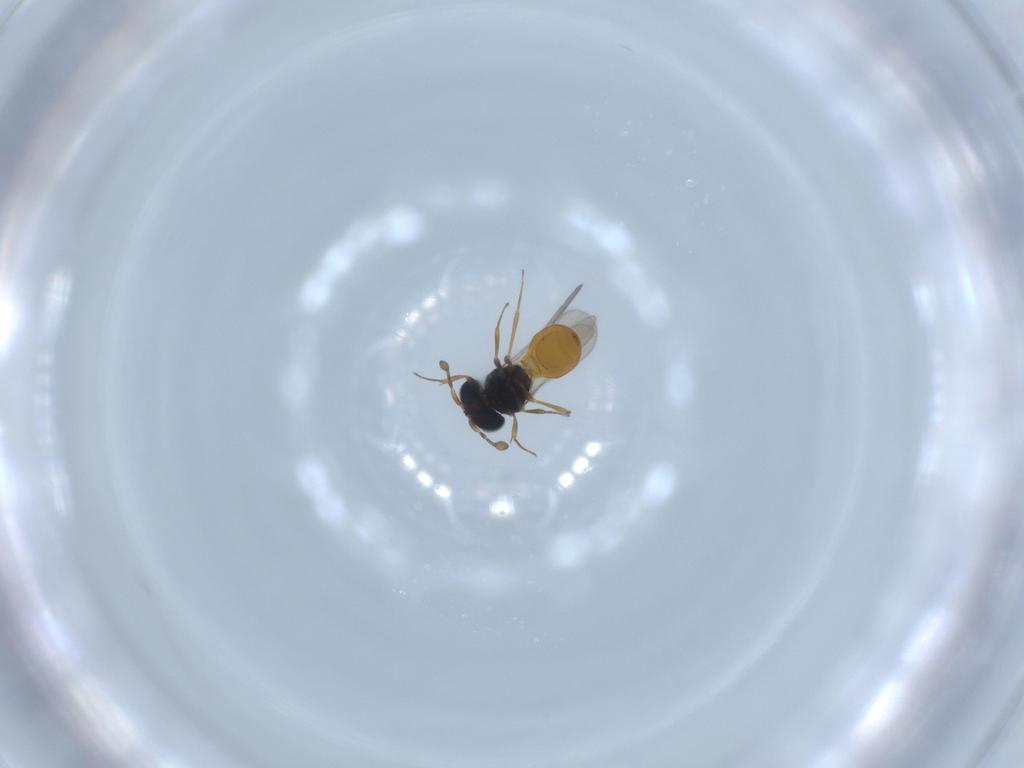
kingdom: Animalia
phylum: Arthropoda
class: Insecta
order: Hymenoptera
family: Scelionidae
